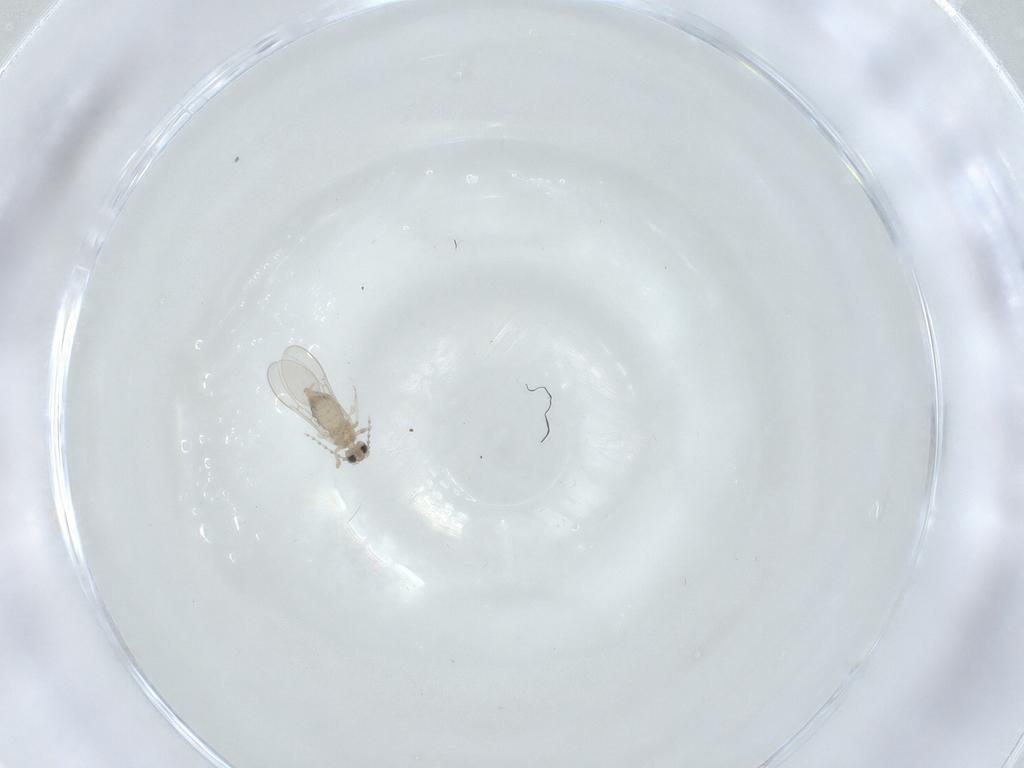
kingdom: Animalia
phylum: Arthropoda
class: Insecta
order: Diptera
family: Cecidomyiidae
